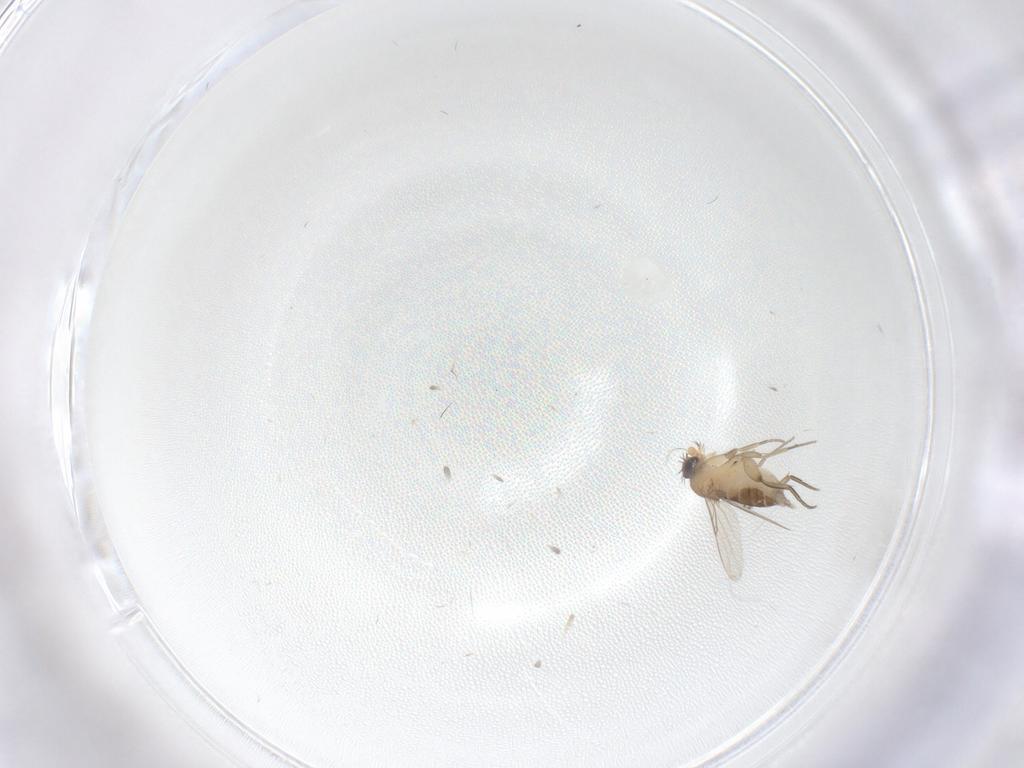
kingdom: Animalia
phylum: Arthropoda
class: Insecta
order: Diptera
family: Phoridae
